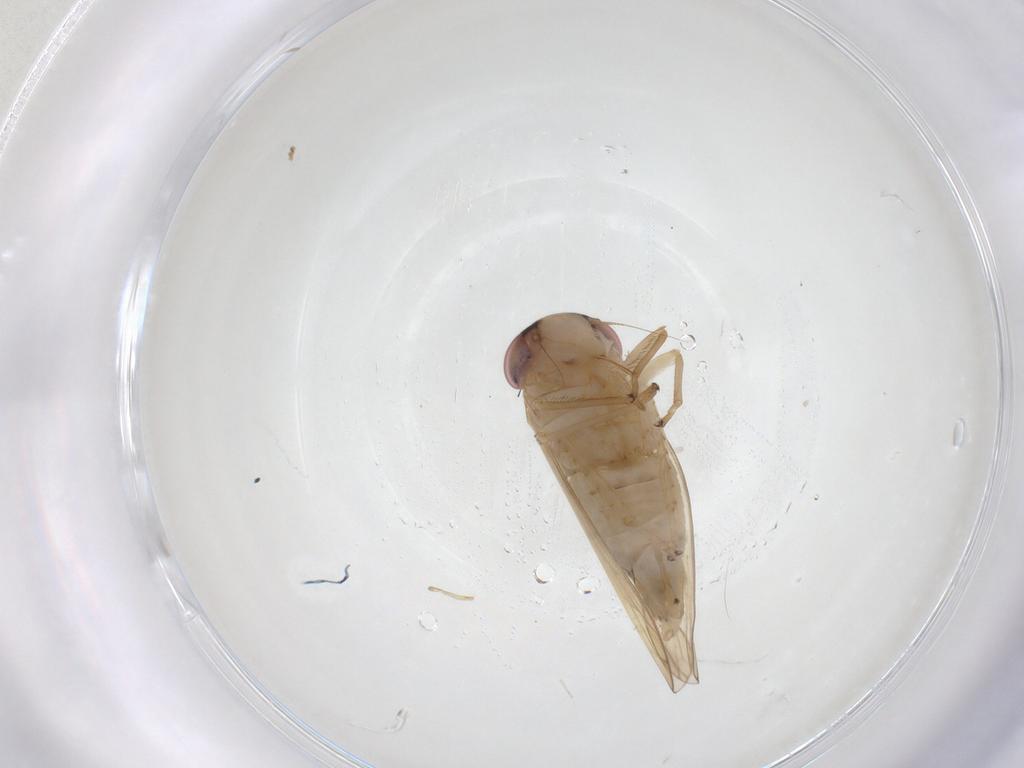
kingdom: Animalia
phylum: Arthropoda
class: Insecta
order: Hemiptera
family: Cicadellidae
